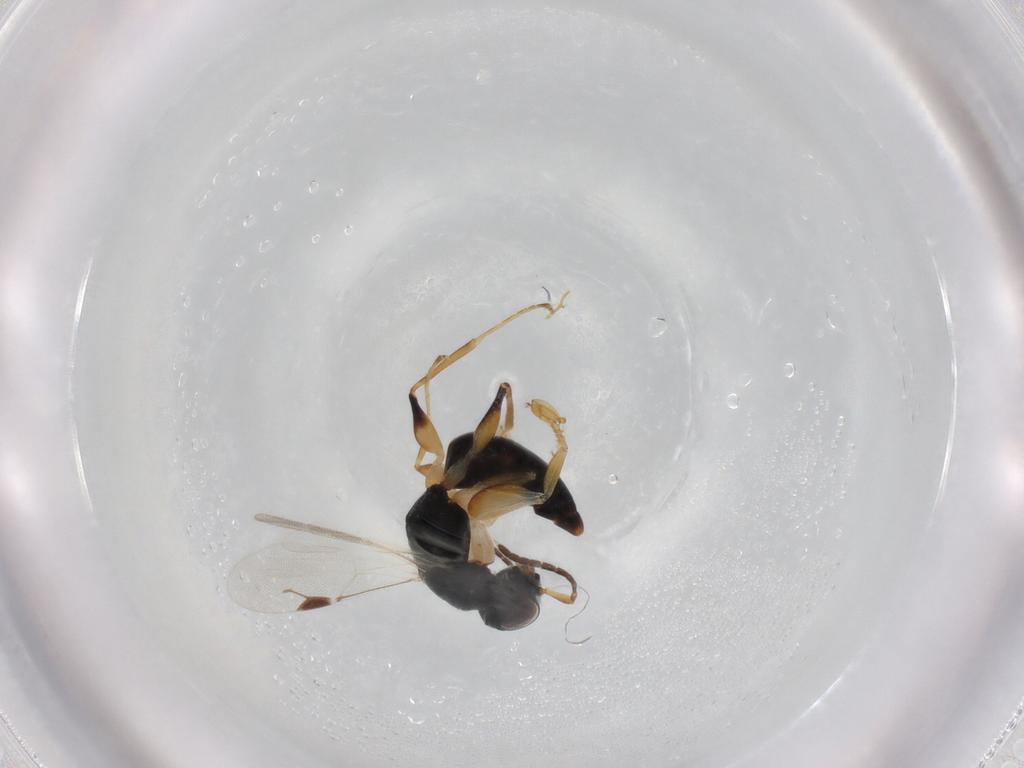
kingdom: Animalia
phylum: Arthropoda
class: Insecta
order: Hymenoptera
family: Dryinidae
